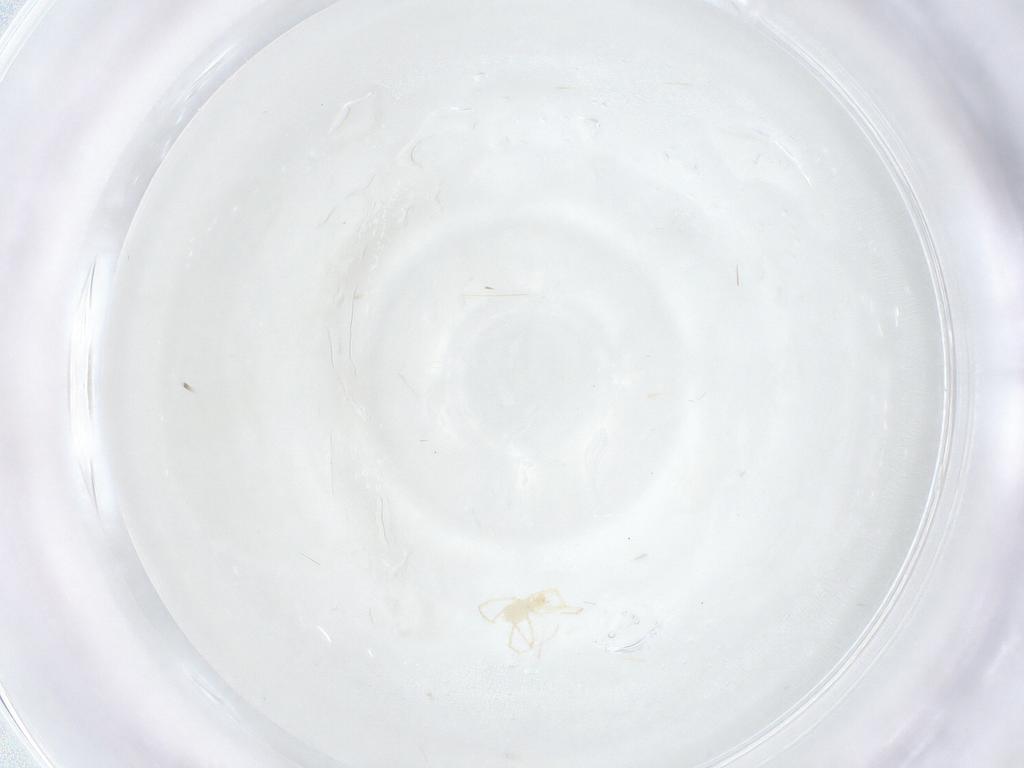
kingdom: Animalia
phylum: Arthropoda
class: Arachnida
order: Trombidiformes
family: Erythraeidae
